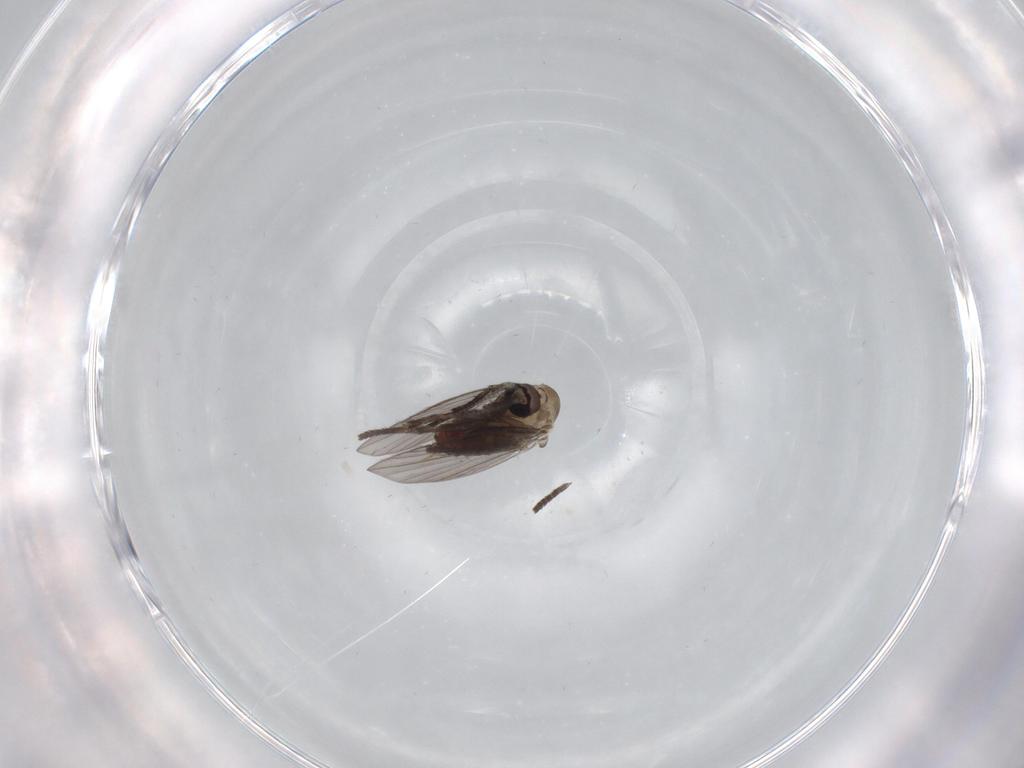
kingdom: Animalia
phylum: Arthropoda
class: Insecta
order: Diptera
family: Psychodidae
